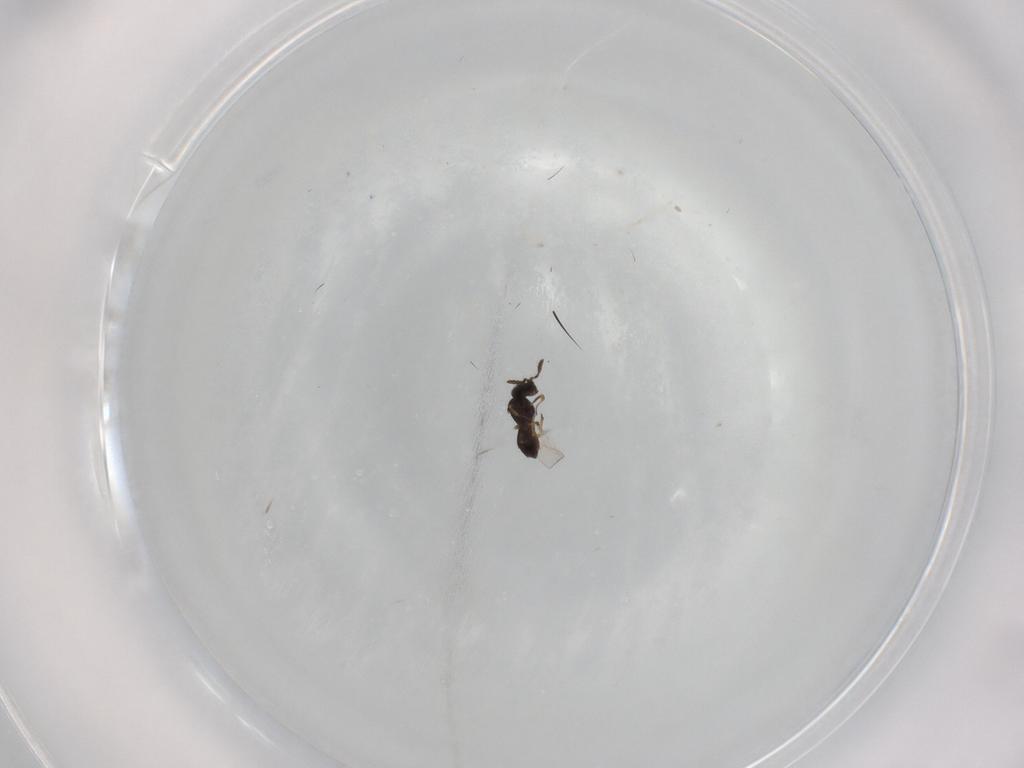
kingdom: Animalia
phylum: Arthropoda
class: Insecta
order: Hymenoptera
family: Scelionidae
